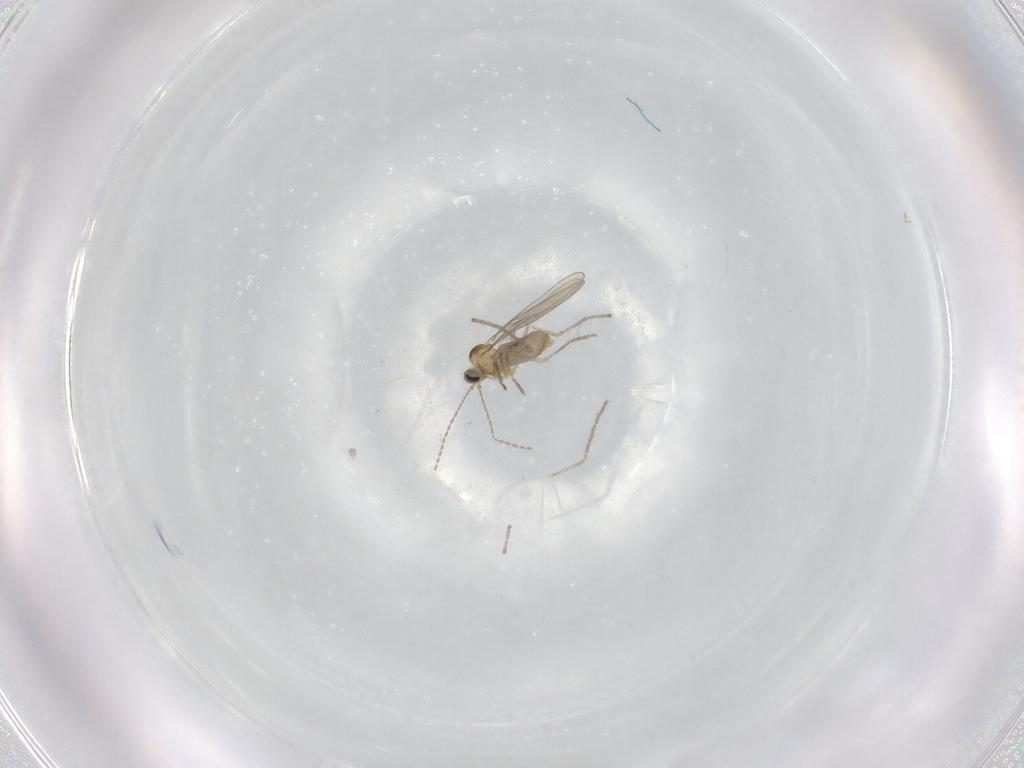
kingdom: Animalia
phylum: Arthropoda
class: Insecta
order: Diptera
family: Cecidomyiidae
